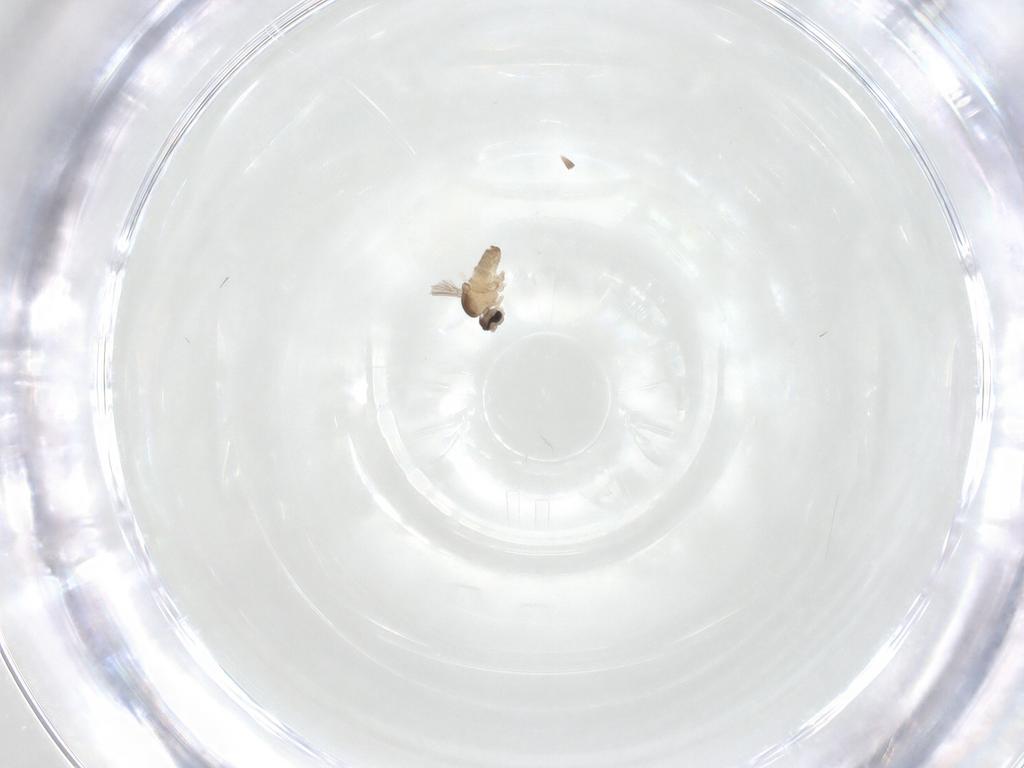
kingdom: Animalia
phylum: Arthropoda
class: Insecta
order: Diptera
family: Cecidomyiidae
